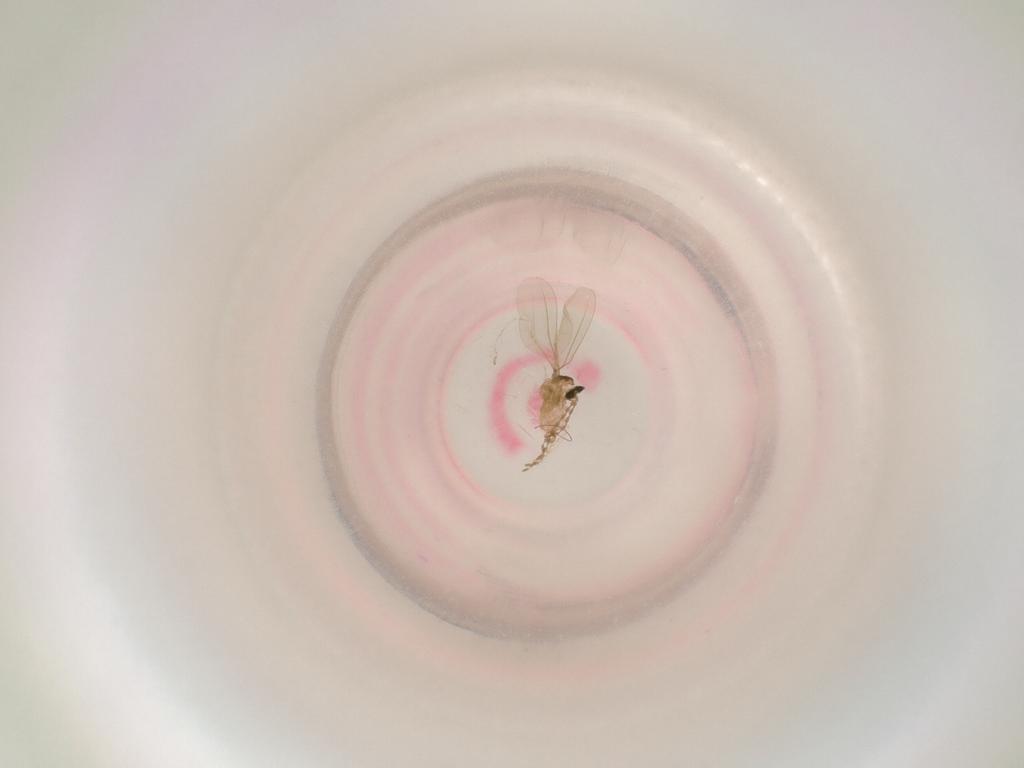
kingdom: Animalia
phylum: Arthropoda
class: Insecta
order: Diptera
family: Cecidomyiidae
